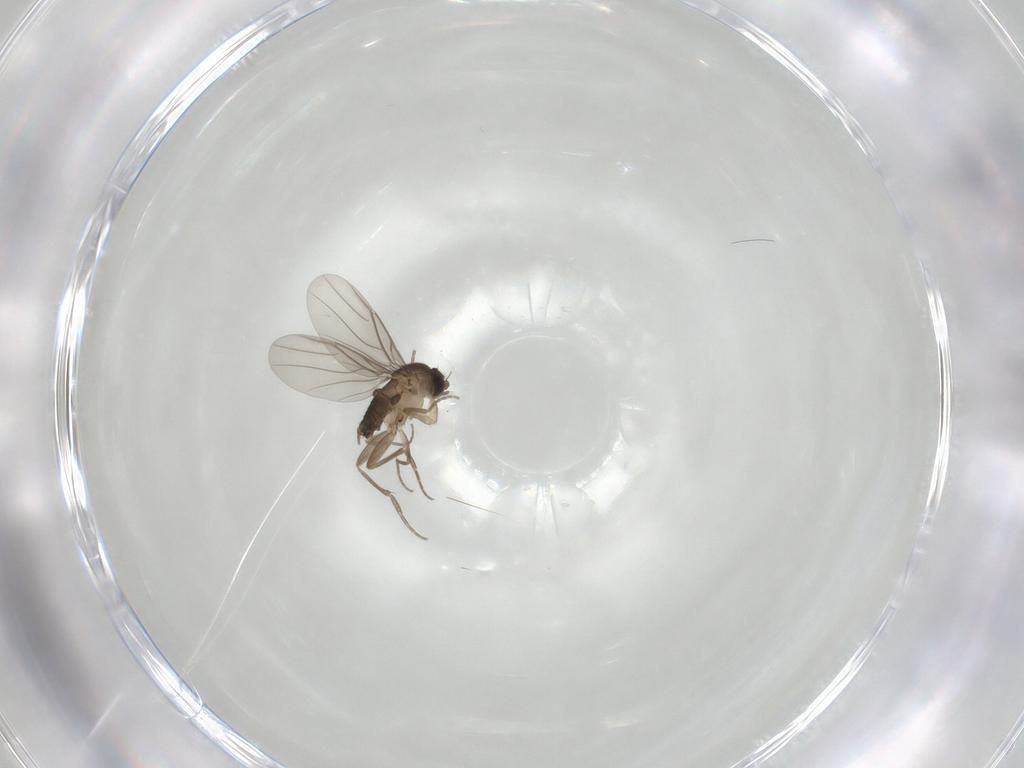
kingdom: Animalia
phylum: Arthropoda
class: Insecta
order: Diptera
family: Phoridae
